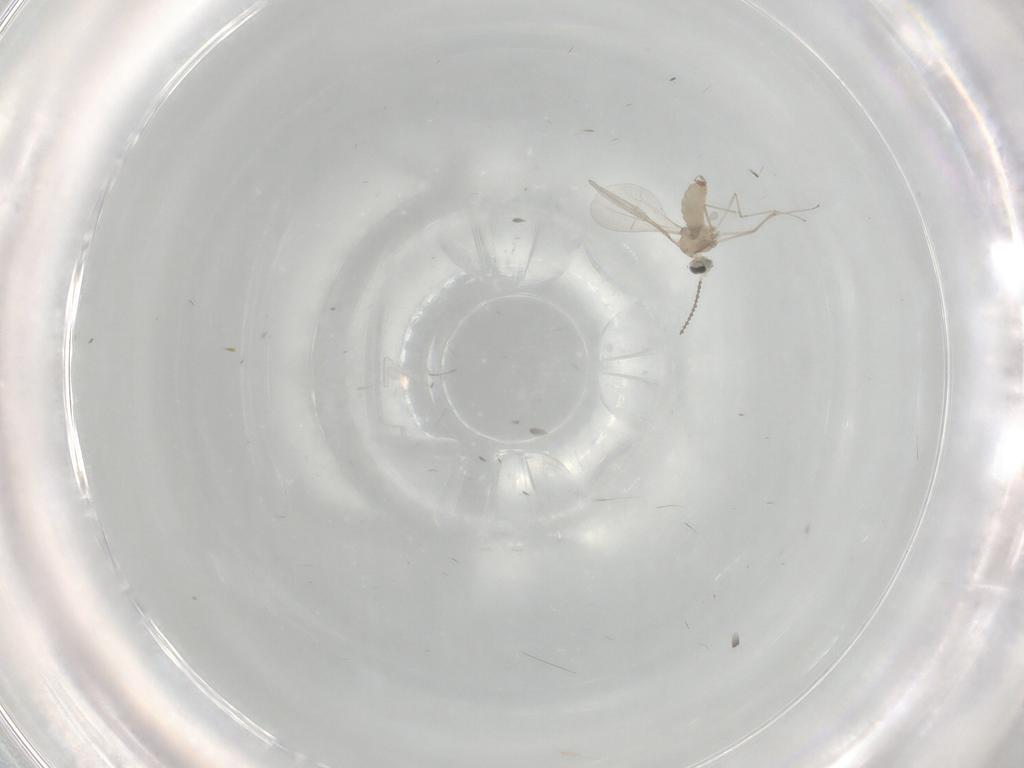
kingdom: Animalia
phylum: Arthropoda
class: Insecta
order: Diptera
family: Cecidomyiidae
